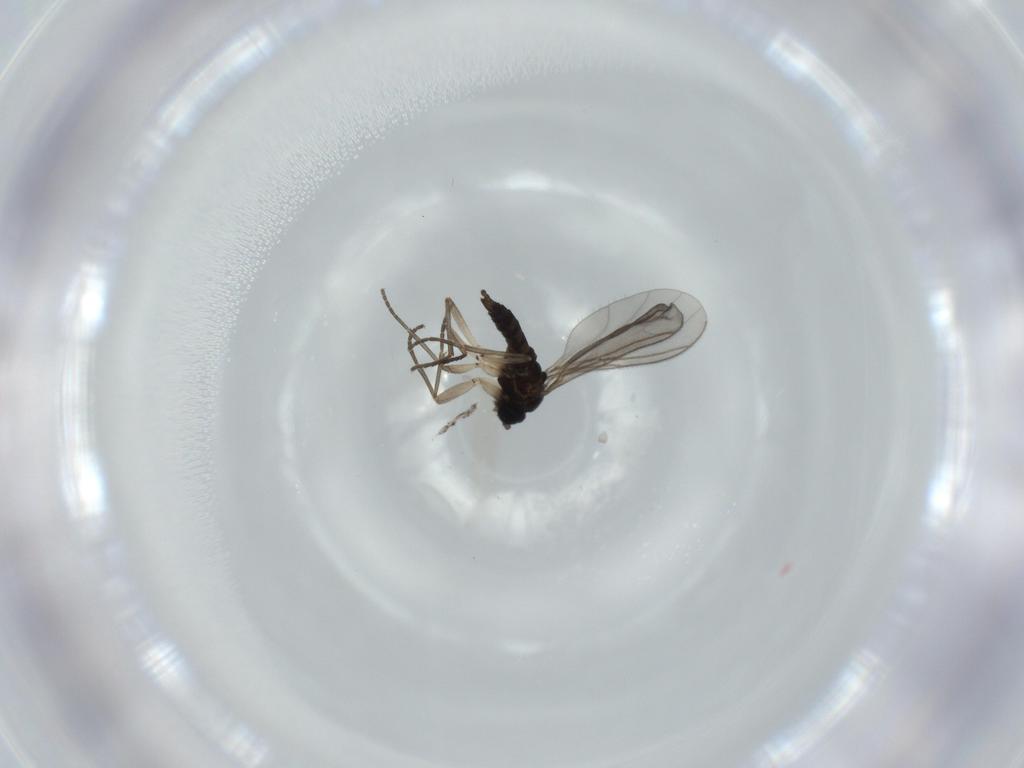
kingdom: Animalia
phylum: Arthropoda
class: Insecta
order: Diptera
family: Sciaridae
